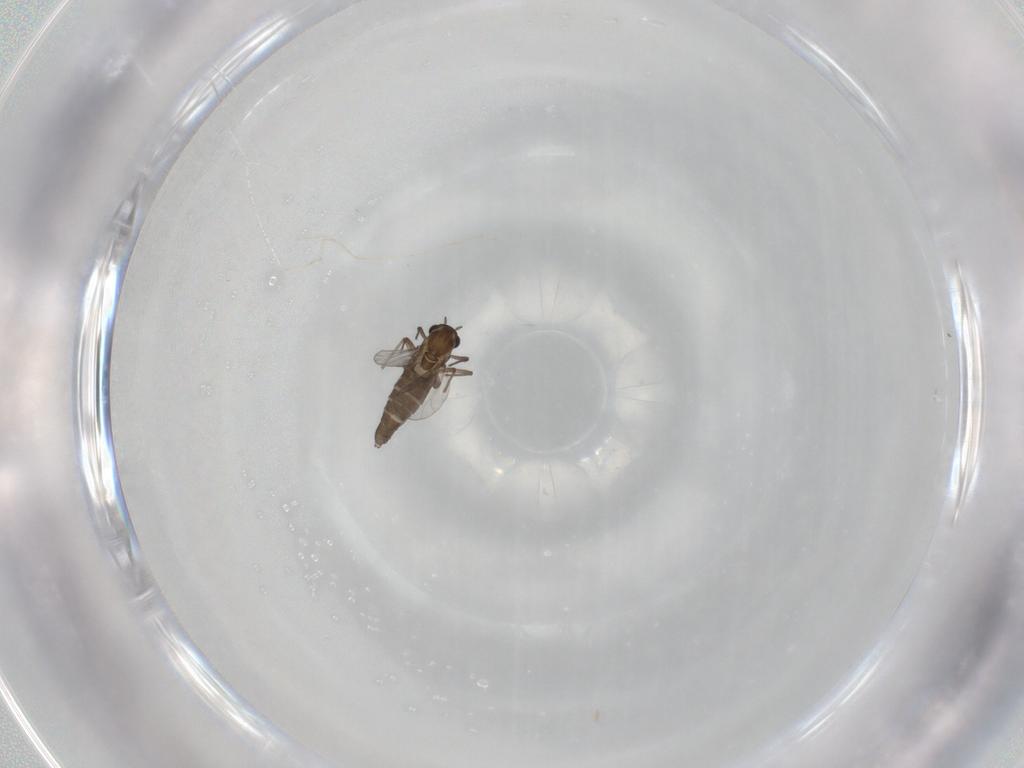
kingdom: Animalia
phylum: Arthropoda
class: Insecta
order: Diptera
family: Chironomidae
